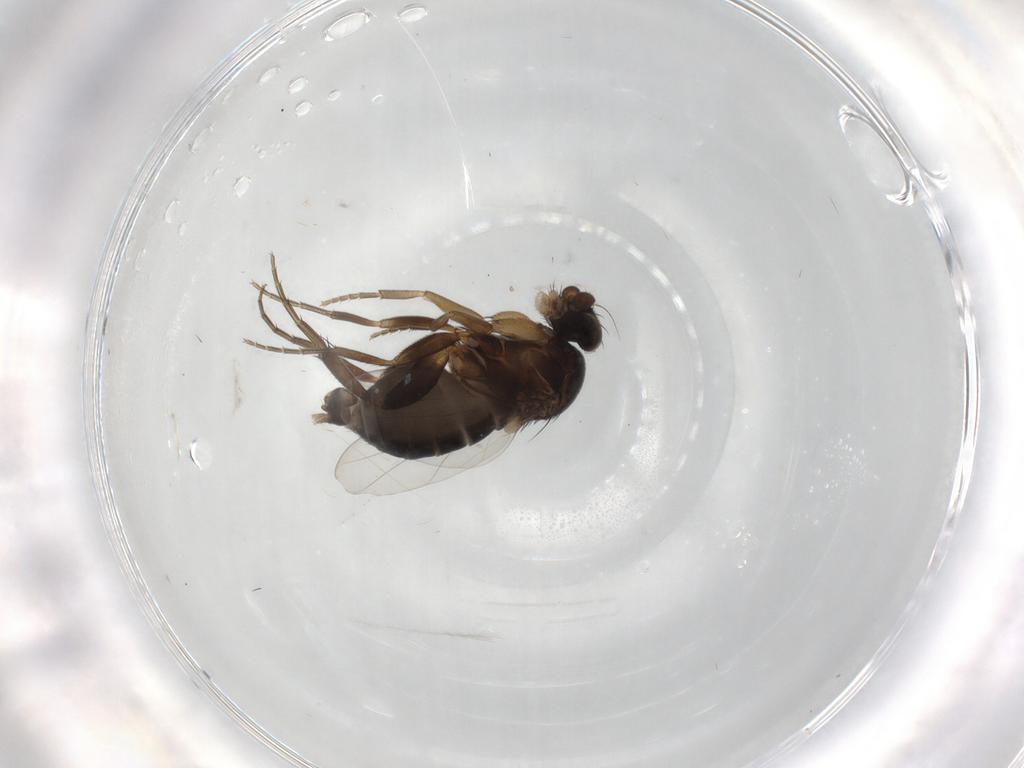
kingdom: Animalia
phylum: Arthropoda
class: Insecta
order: Diptera
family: Phoridae
